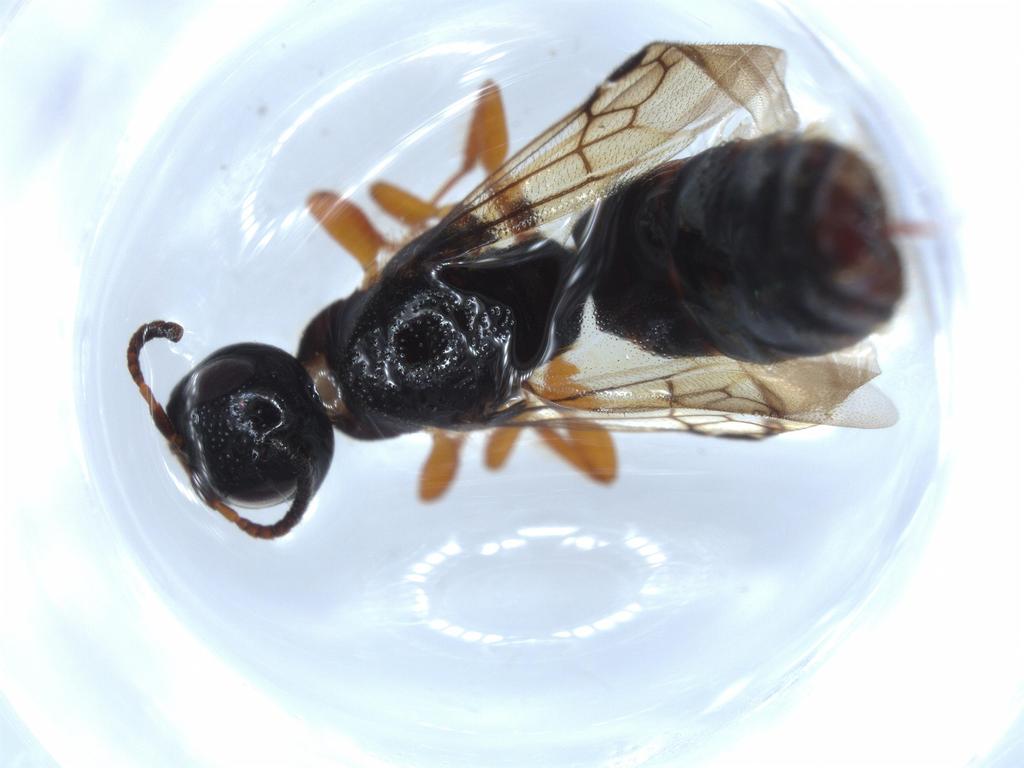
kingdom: Animalia
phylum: Arthropoda
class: Insecta
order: Hymenoptera
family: Scolebythidae
